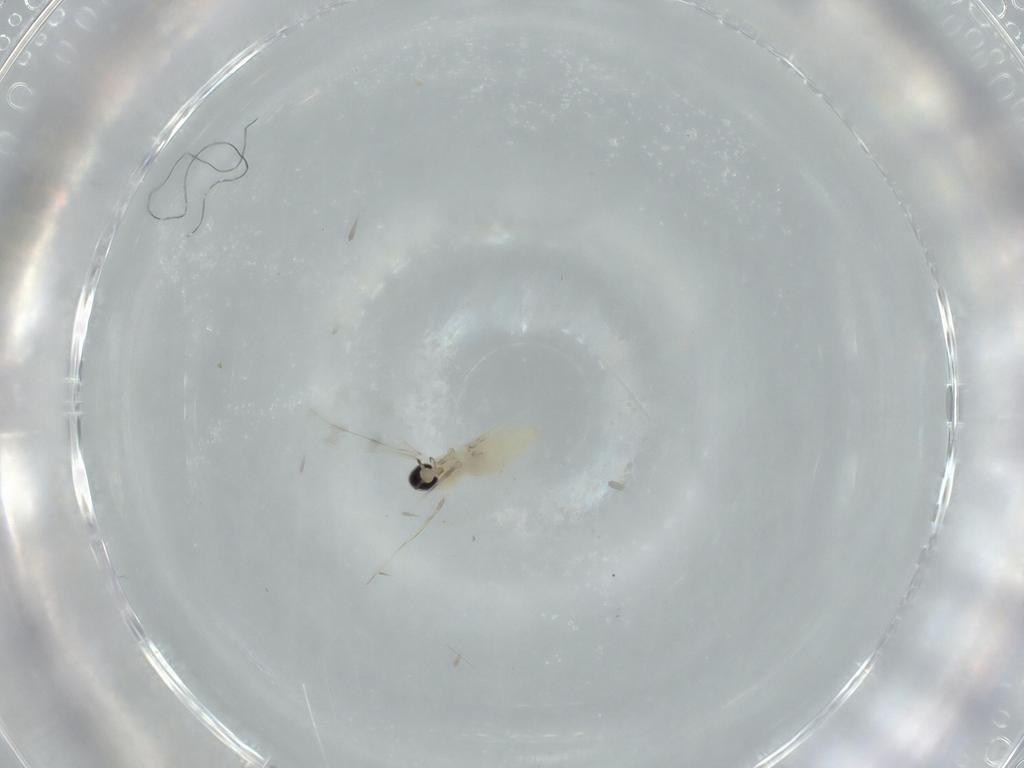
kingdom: Animalia
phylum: Arthropoda
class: Insecta
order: Diptera
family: Cecidomyiidae
